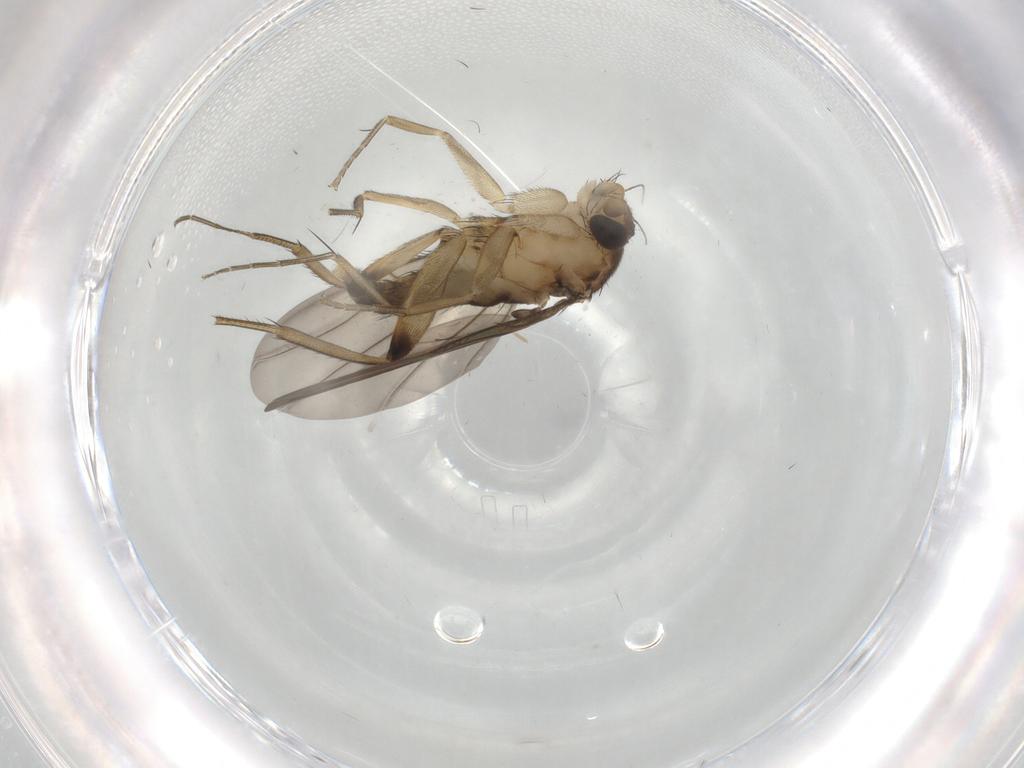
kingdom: Animalia
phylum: Arthropoda
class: Insecta
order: Diptera
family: Phoridae
